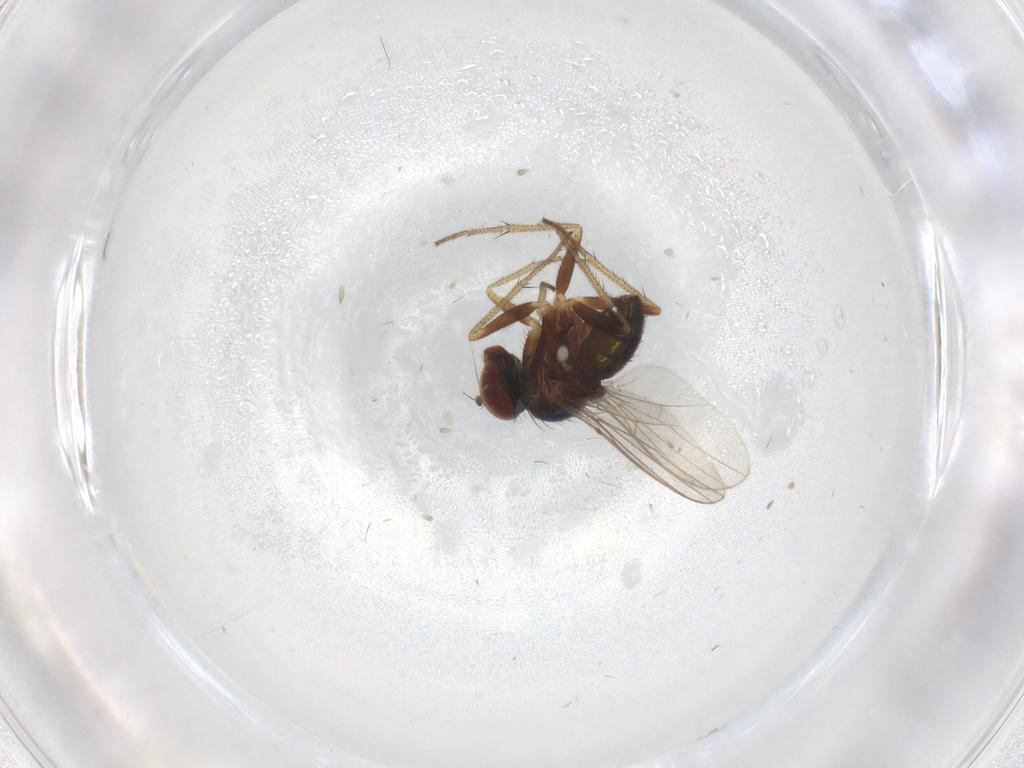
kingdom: Animalia
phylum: Arthropoda
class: Insecta
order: Diptera
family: Dolichopodidae
